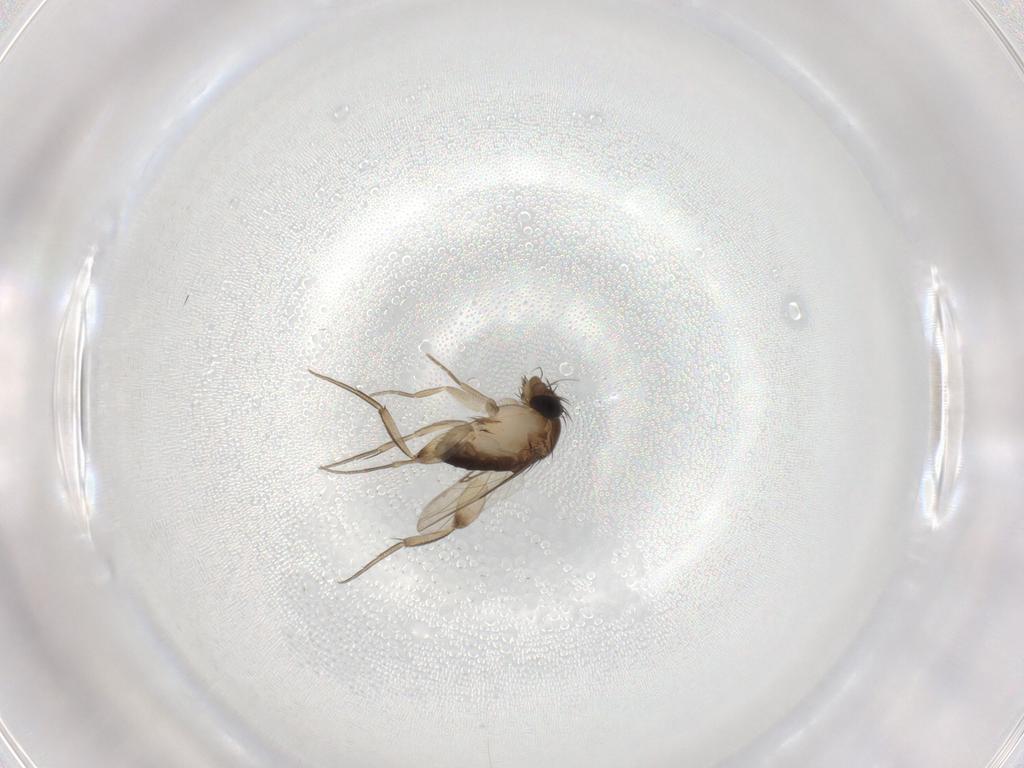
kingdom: Animalia
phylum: Arthropoda
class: Insecta
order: Diptera
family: Phoridae
